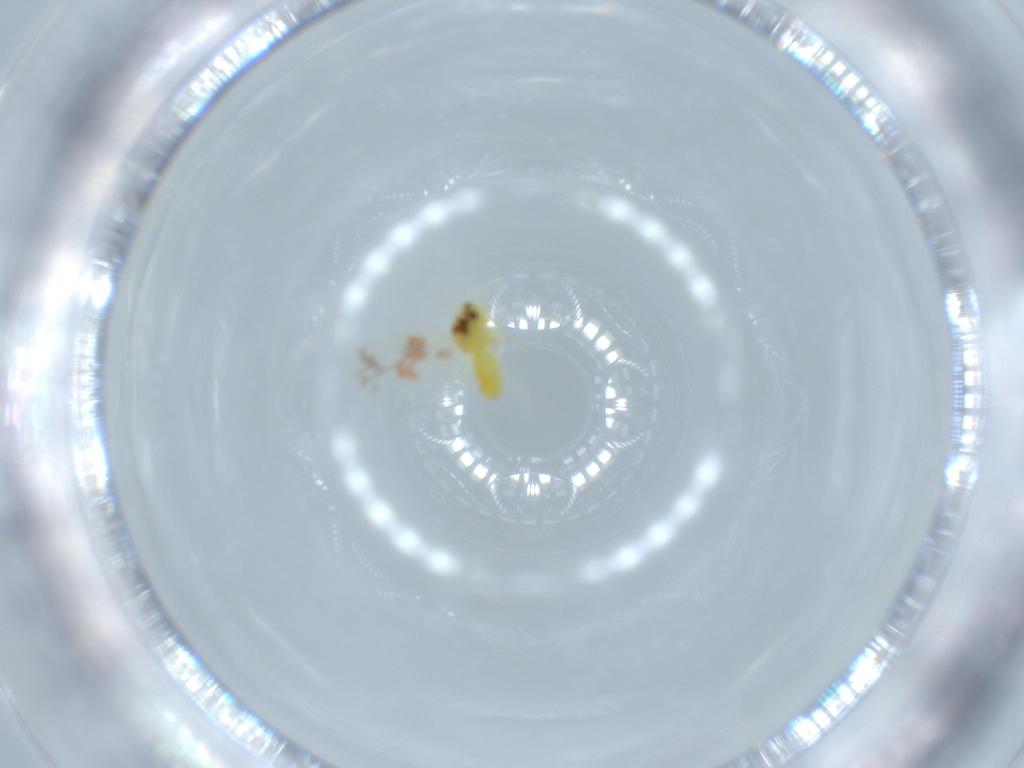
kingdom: Animalia
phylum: Arthropoda
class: Insecta
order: Hemiptera
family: Aleyrodidae
